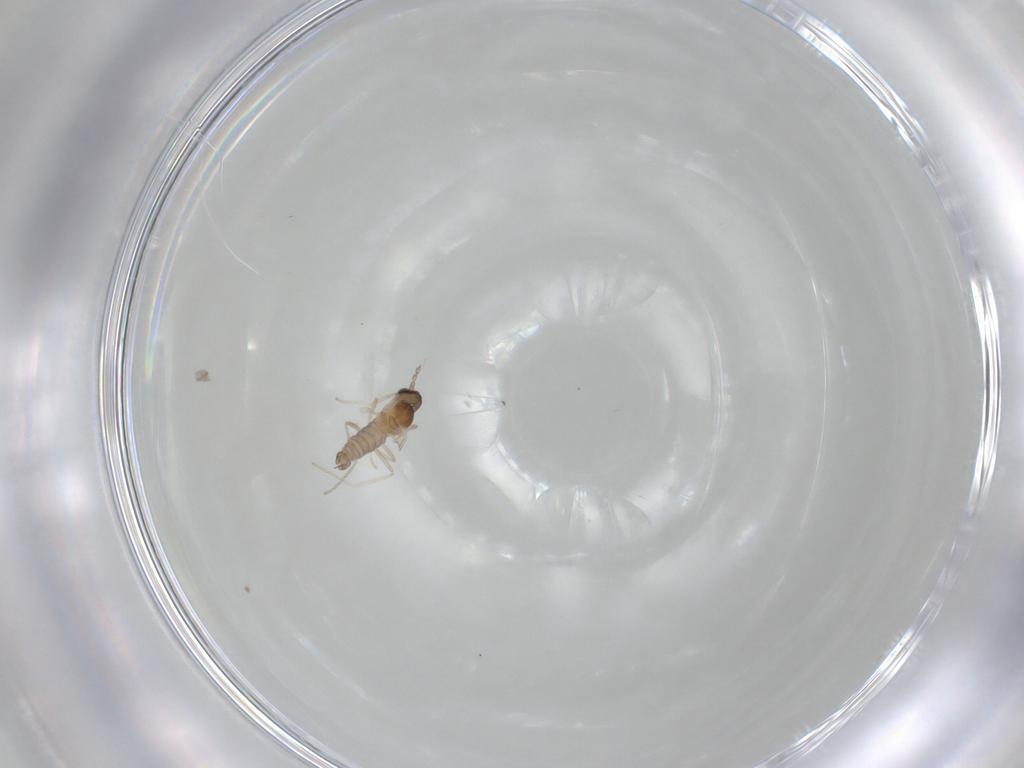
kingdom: Animalia
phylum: Arthropoda
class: Insecta
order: Diptera
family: Cecidomyiidae
